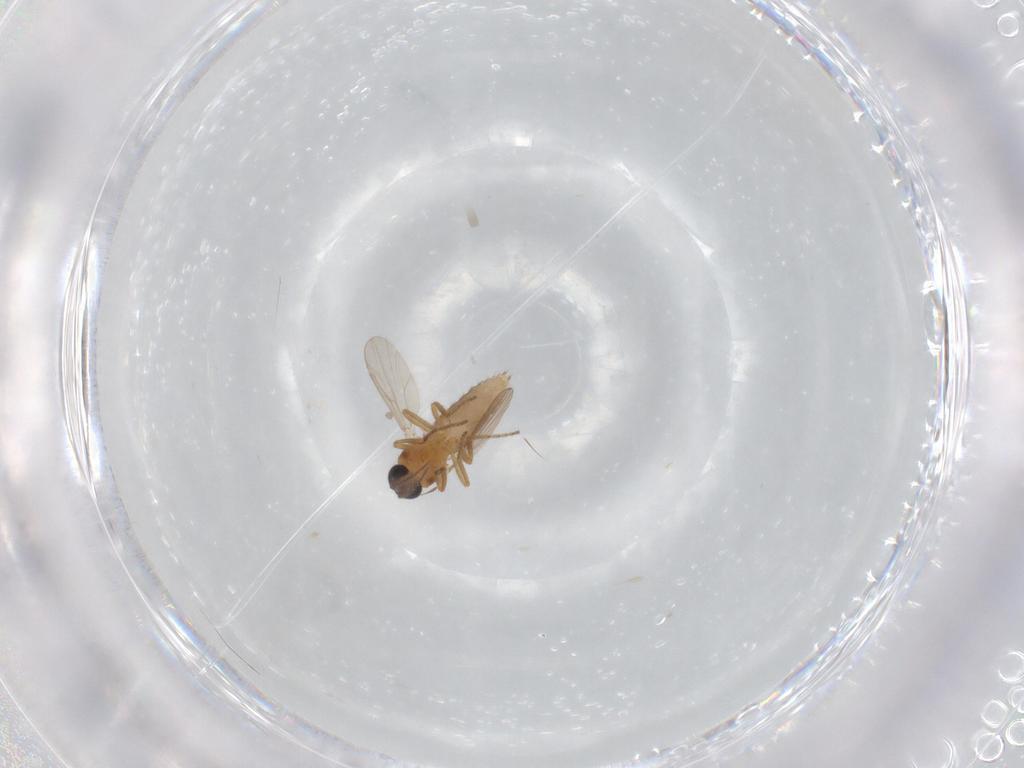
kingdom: Animalia
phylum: Arthropoda
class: Insecta
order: Diptera
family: Ceratopogonidae
